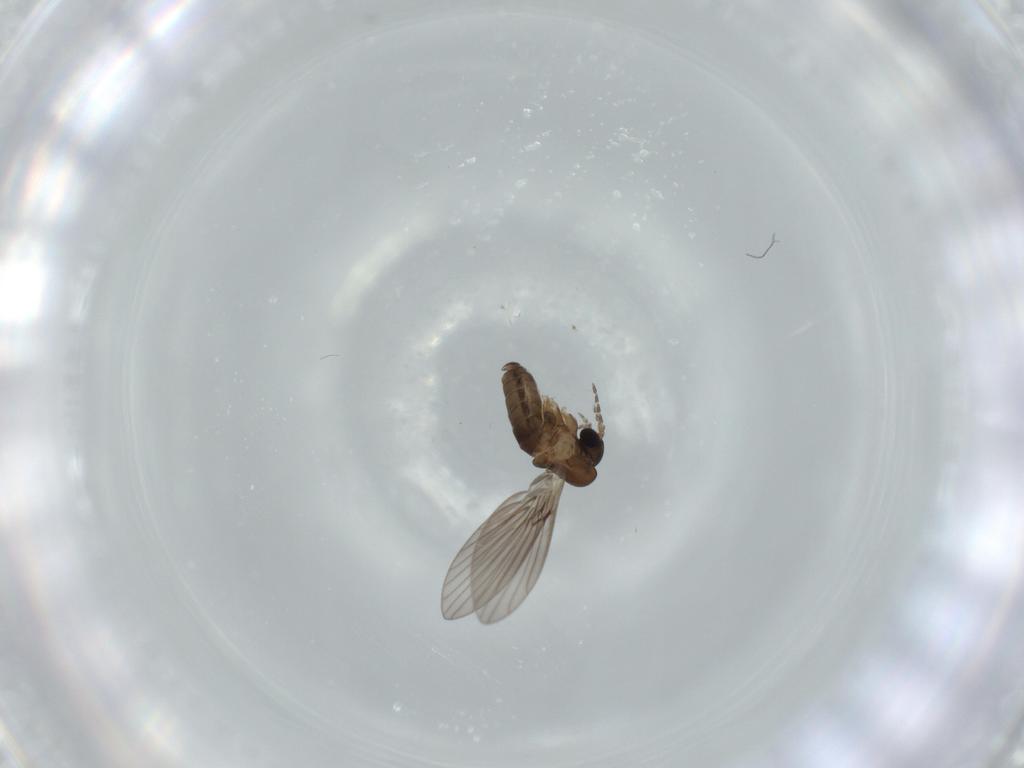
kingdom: Animalia
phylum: Arthropoda
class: Insecta
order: Diptera
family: Psychodidae
